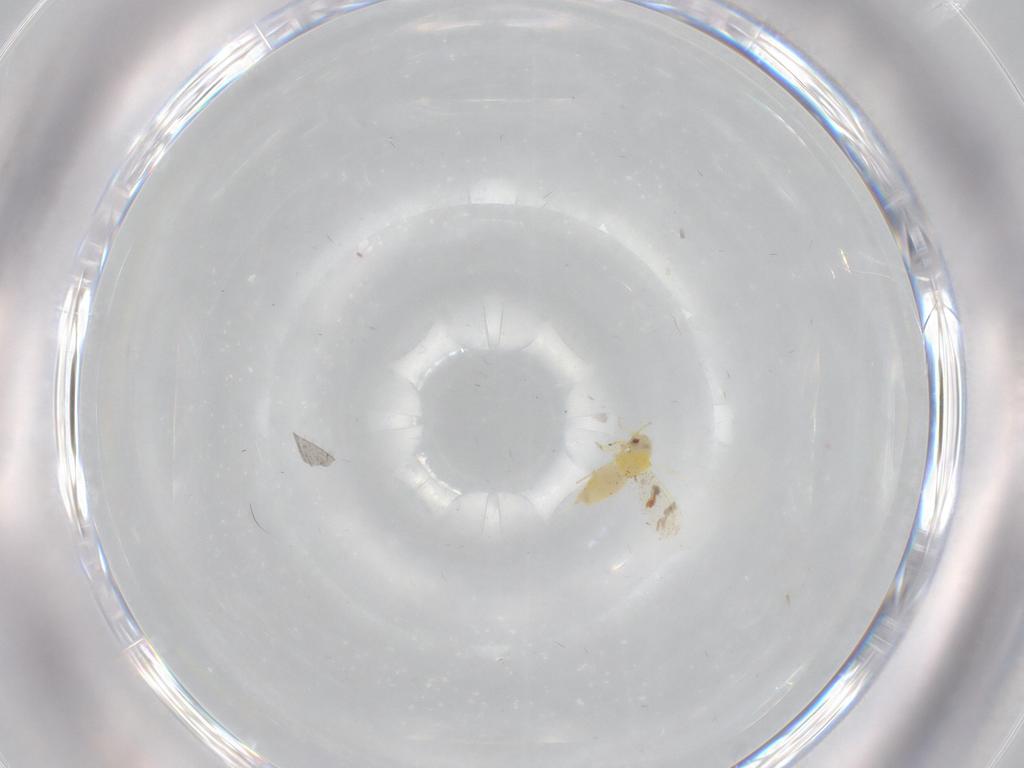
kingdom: Animalia
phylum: Arthropoda
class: Insecta
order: Hemiptera
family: Aleyrodidae
